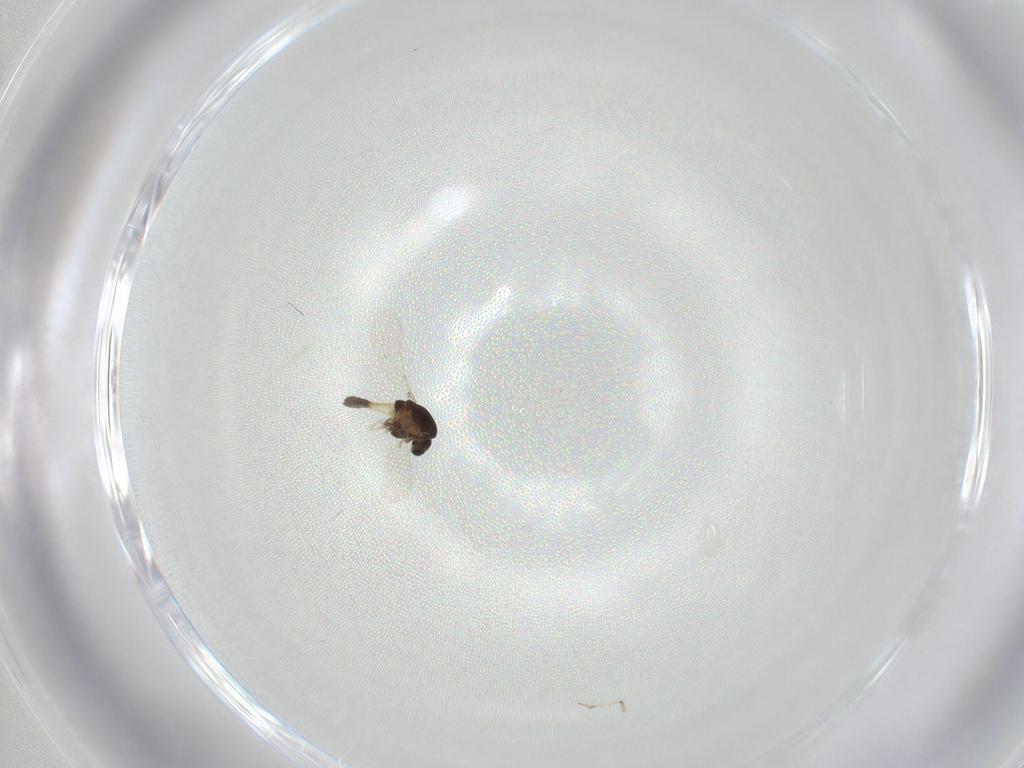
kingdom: Animalia
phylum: Arthropoda
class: Insecta
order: Diptera
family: Chironomidae
